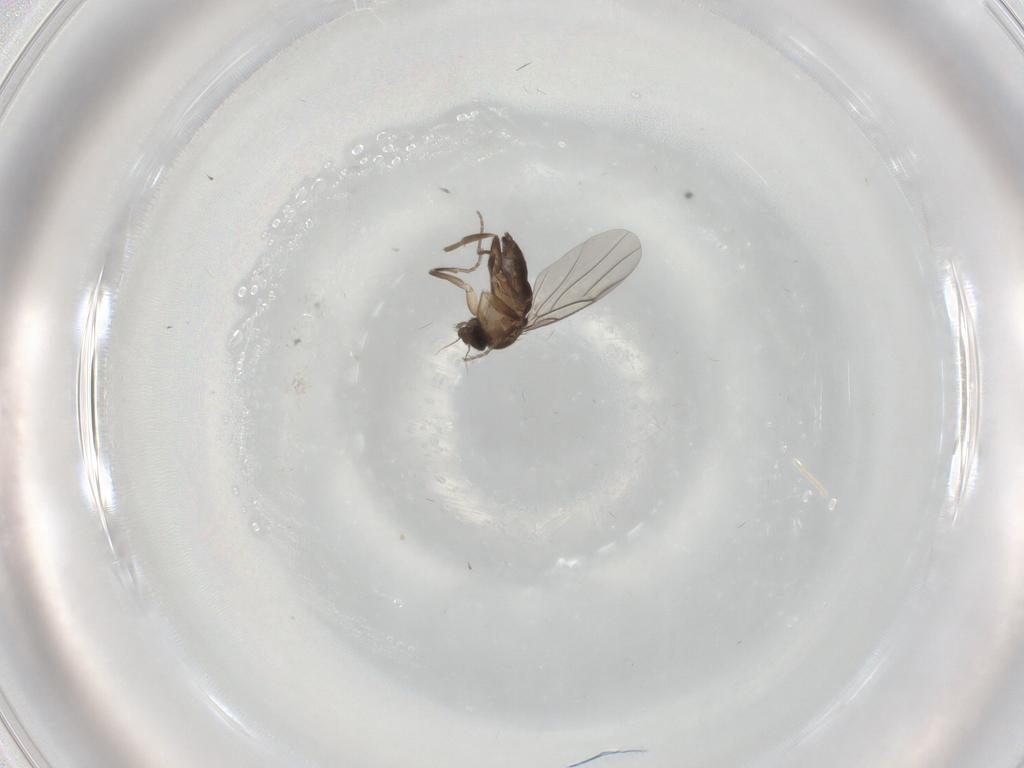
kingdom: Animalia
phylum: Arthropoda
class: Insecta
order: Diptera
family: Phoridae
